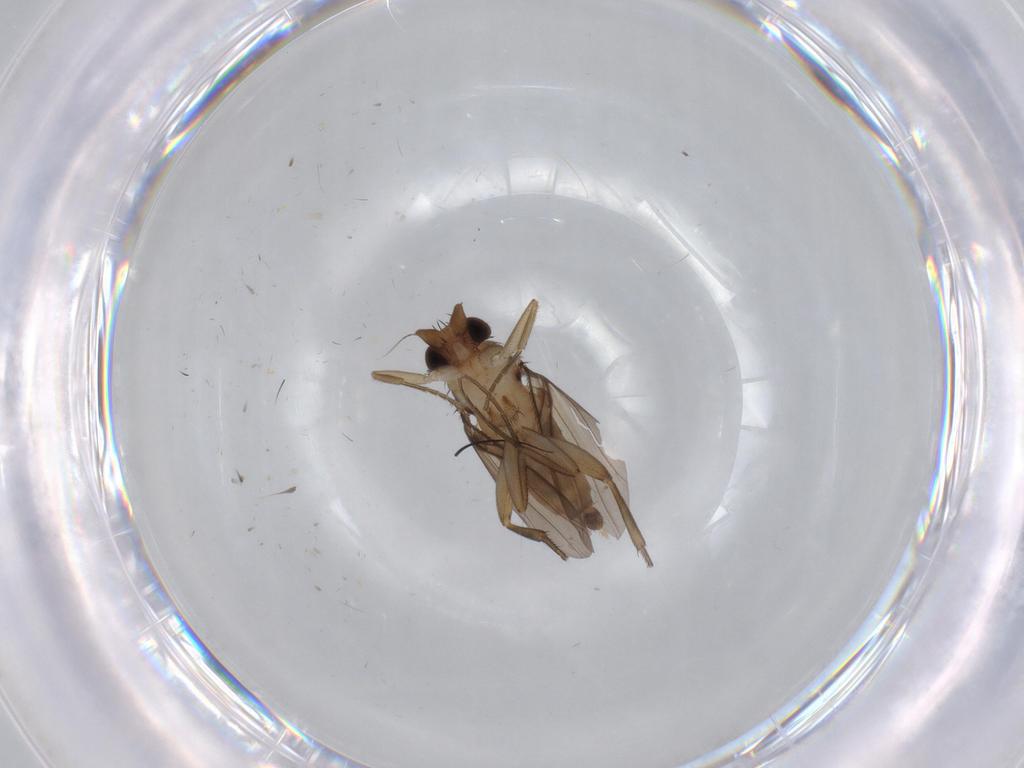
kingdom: Animalia
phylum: Arthropoda
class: Insecta
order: Diptera
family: Phoridae
